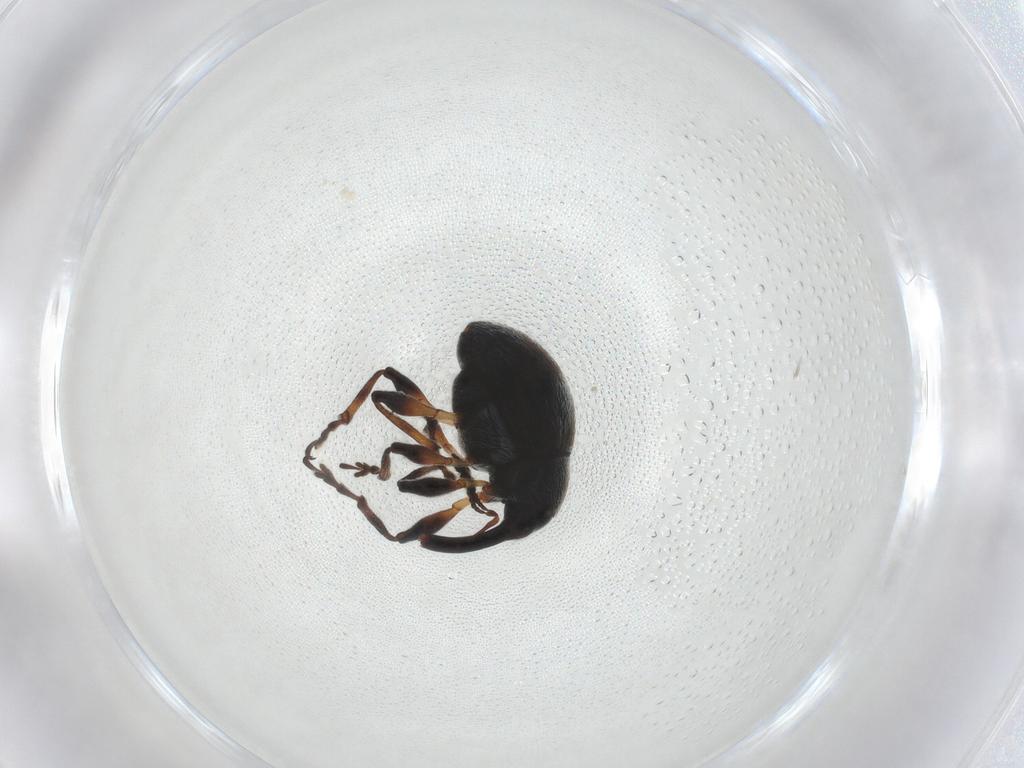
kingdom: Animalia
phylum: Arthropoda
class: Insecta
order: Coleoptera
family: Brentidae
